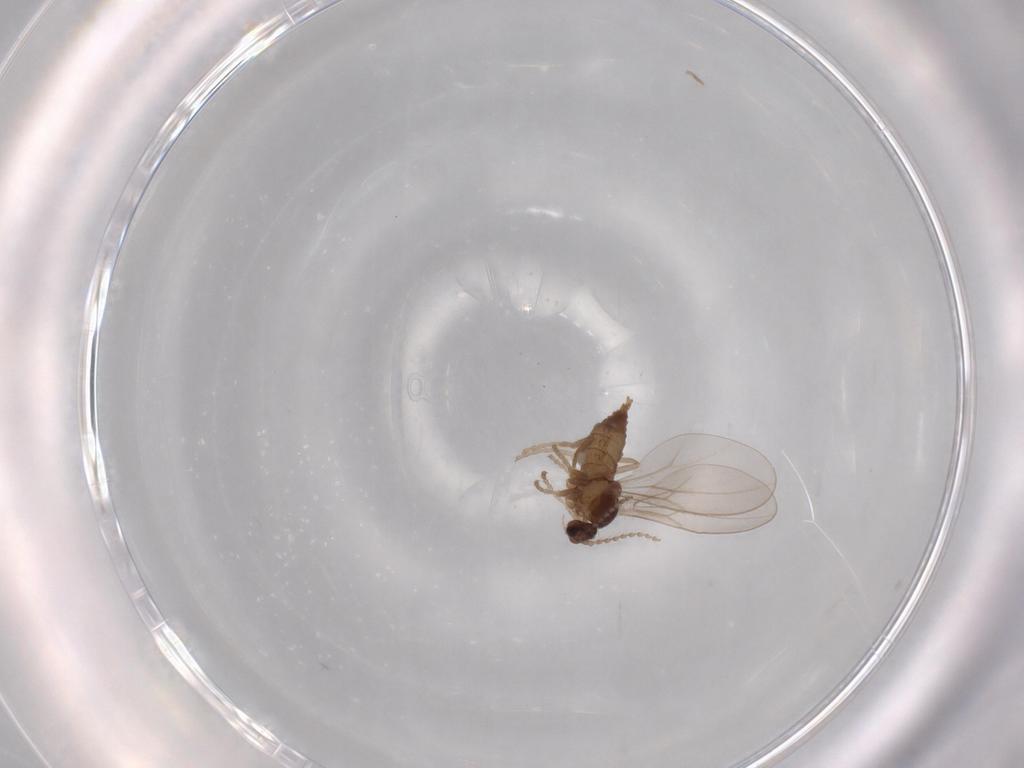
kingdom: Animalia
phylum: Arthropoda
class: Insecta
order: Diptera
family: Cecidomyiidae
